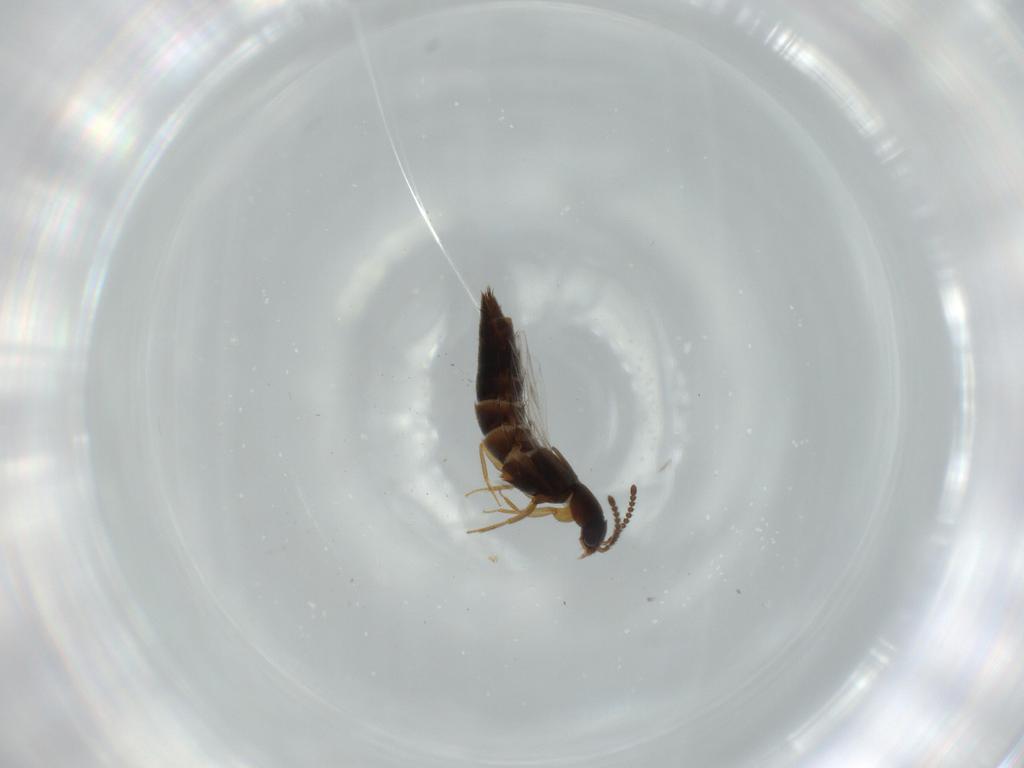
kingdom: Animalia
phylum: Arthropoda
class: Insecta
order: Coleoptera
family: Staphylinidae
